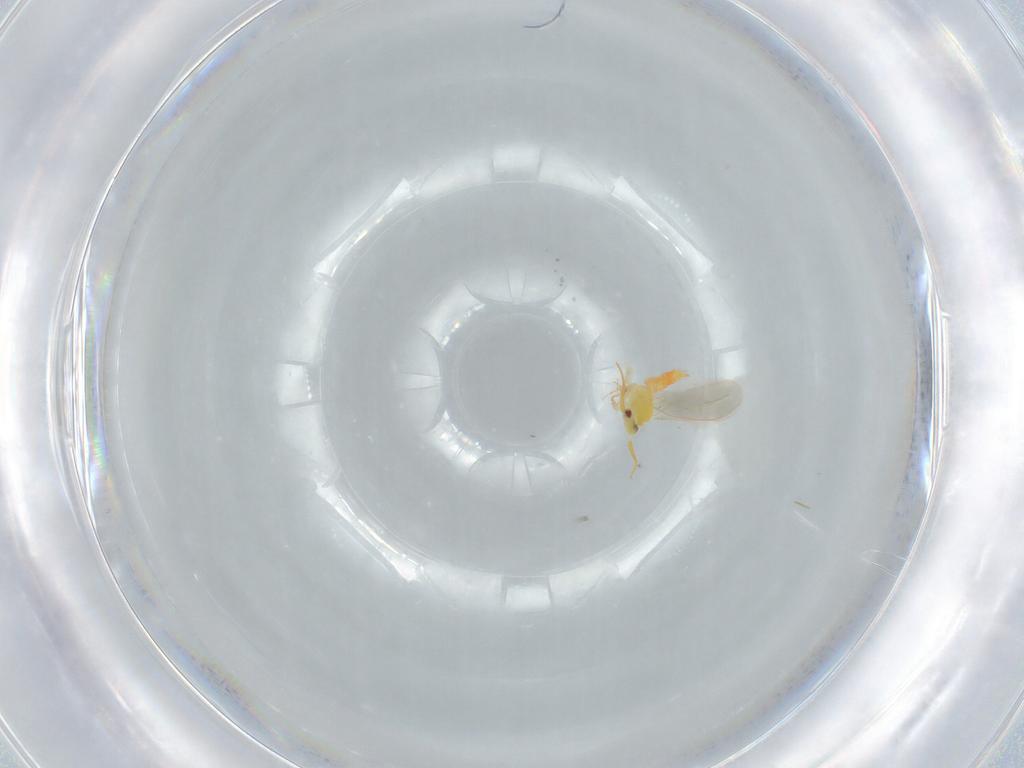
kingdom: Animalia
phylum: Arthropoda
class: Insecta
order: Hemiptera
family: Aleyrodidae
